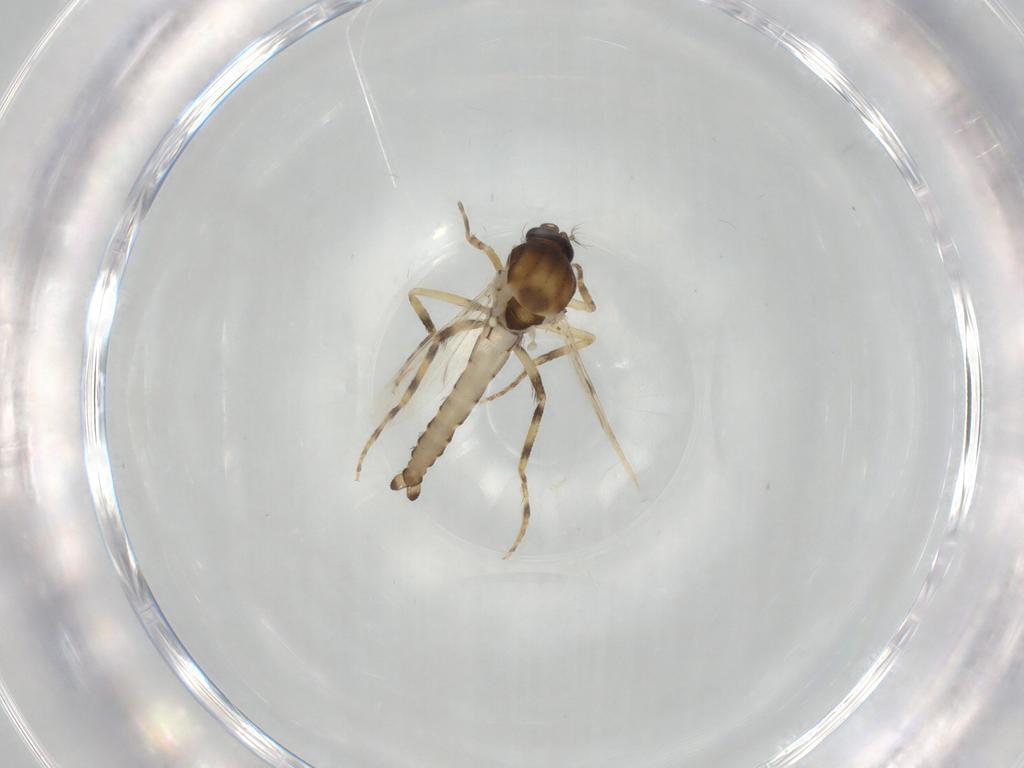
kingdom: Animalia
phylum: Arthropoda
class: Insecta
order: Diptera
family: Ceratopogonidae
